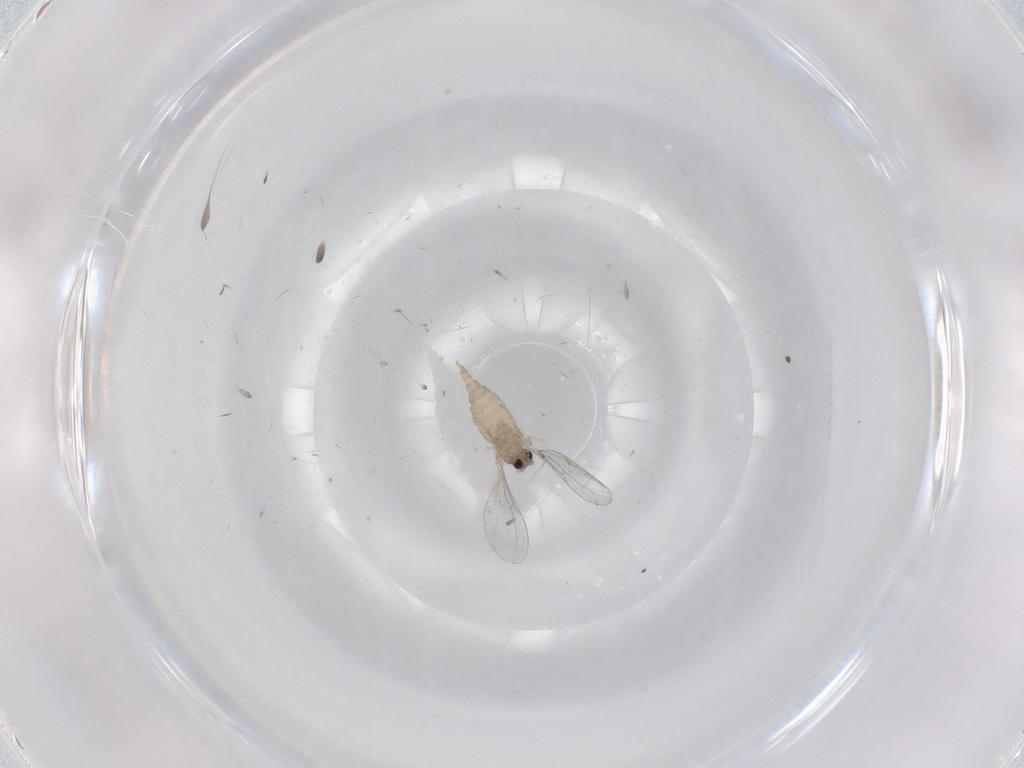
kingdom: Animalia
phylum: Arthropoda
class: Insecta
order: Diptera
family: Cecidomyiidae
